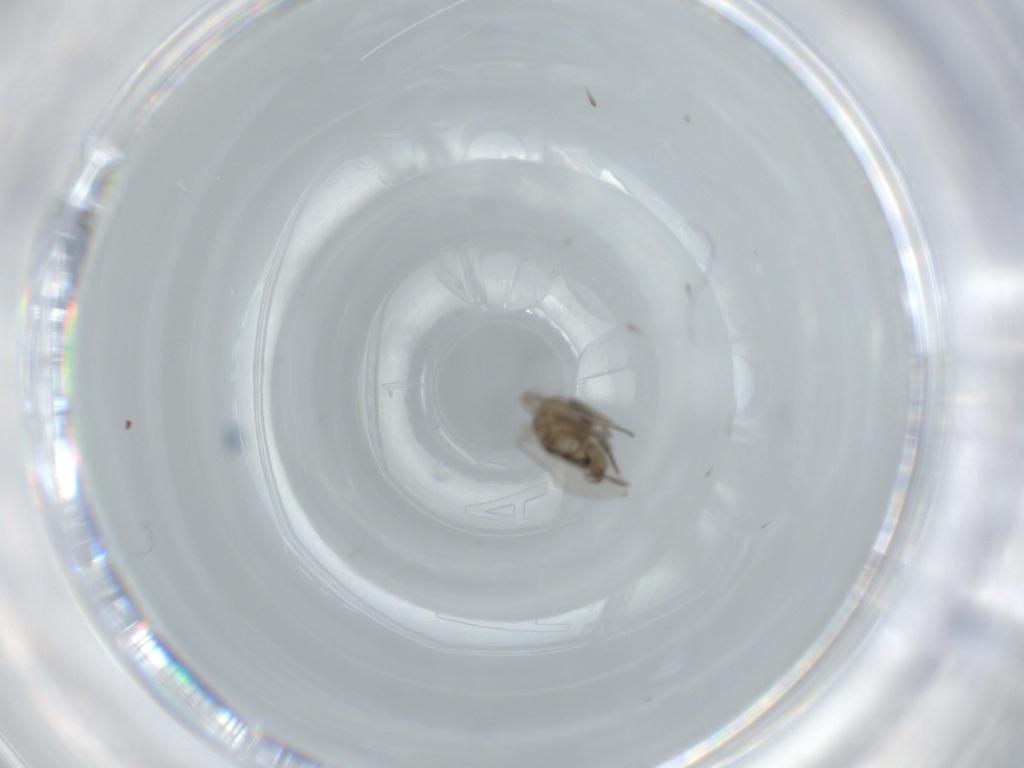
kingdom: Animalia
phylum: Arthropoda
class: Insecta
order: Diptera
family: Psychodidae
